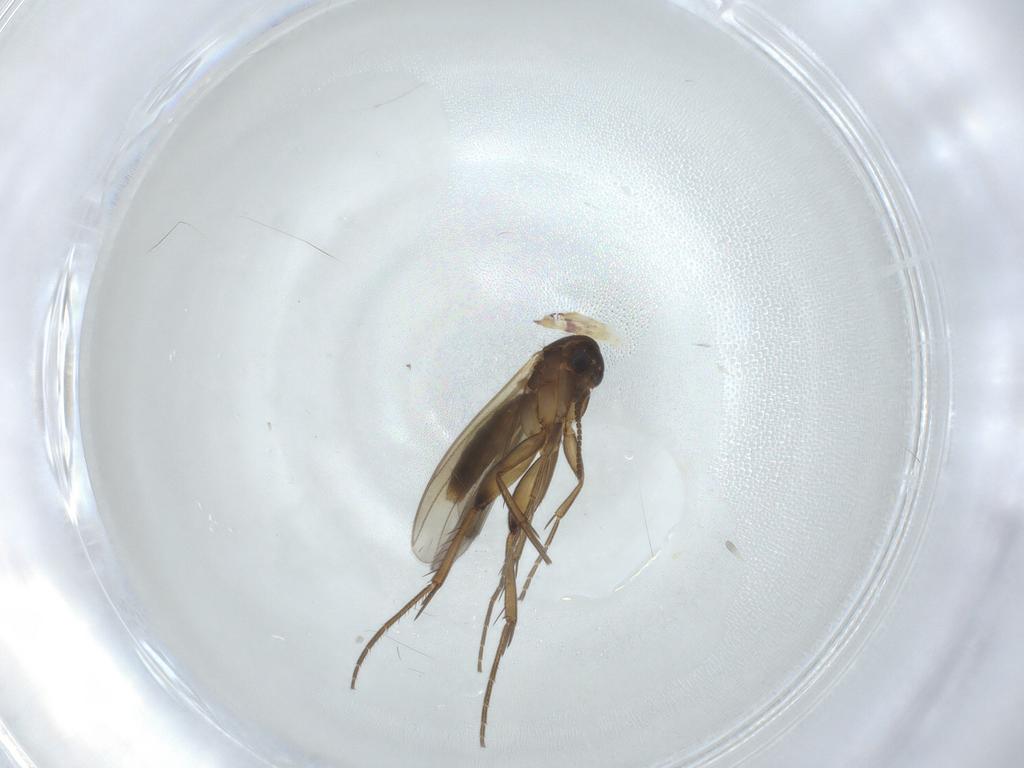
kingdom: Animalia
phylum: Arthropoda
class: Insecta
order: Diptera
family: Mycetophilidae
